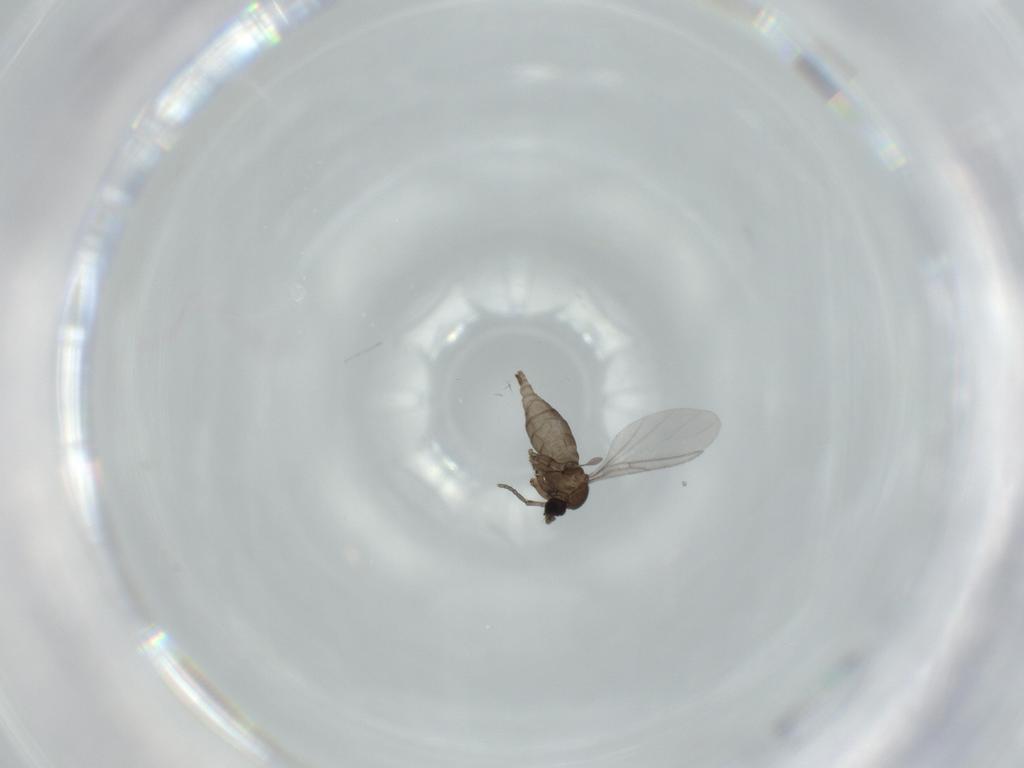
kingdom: Animalia
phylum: Arthropoda
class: Insecta
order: Diptera
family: Sciaridae
